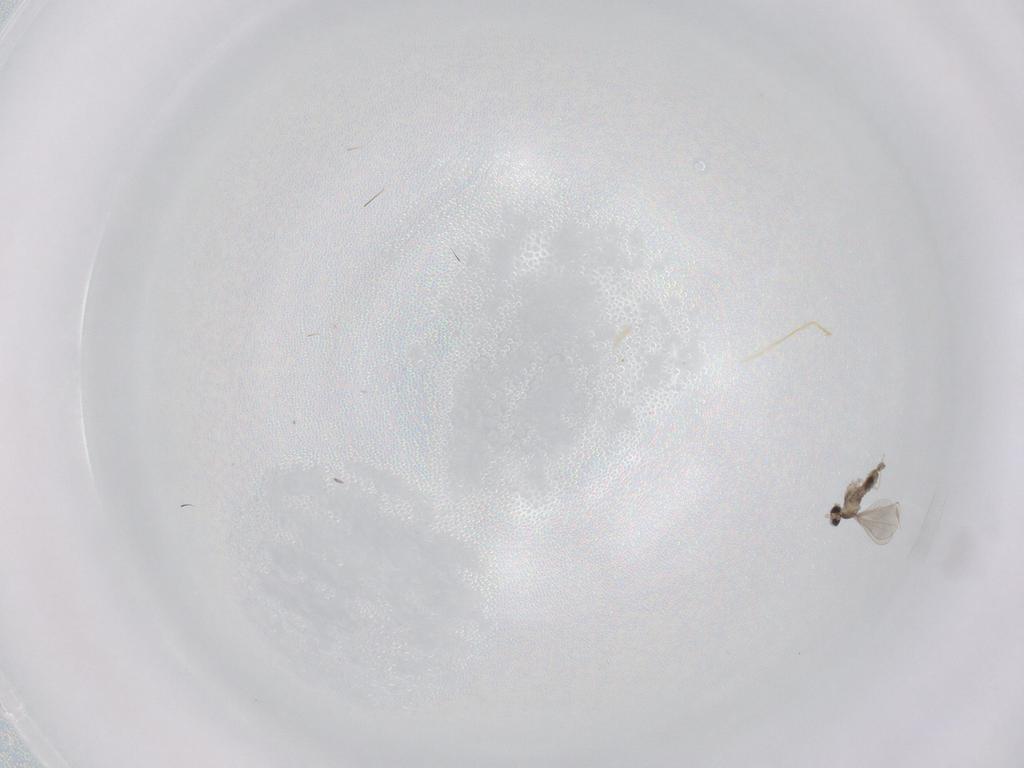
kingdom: Animalia
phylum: Arthropoda
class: Insecta
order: Diptera
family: Cecidomyiidae
